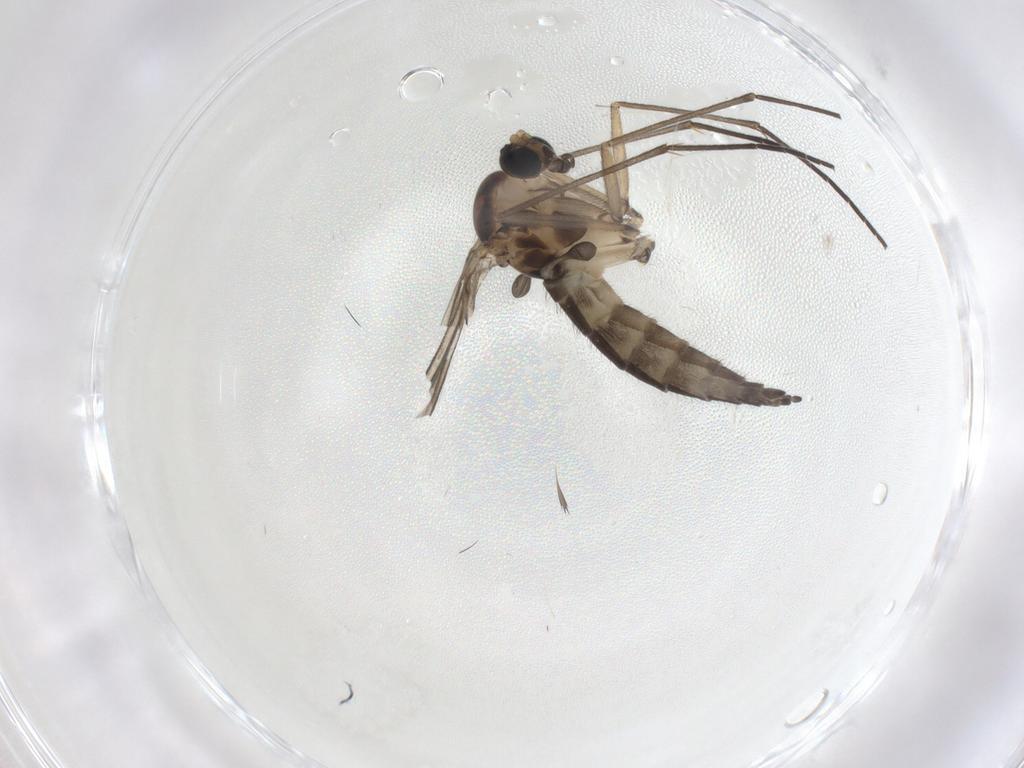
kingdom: Animalia
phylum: Arthropoda
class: Insecta
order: Diptera
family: Sciaridae
